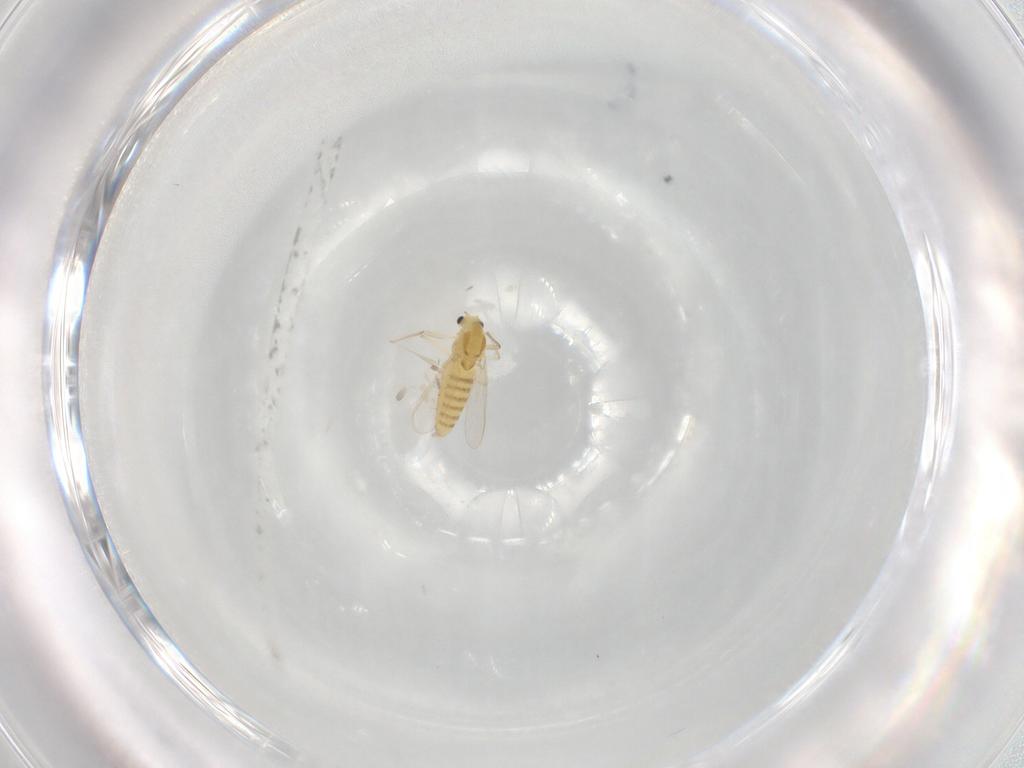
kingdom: Animalia
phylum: Arthropoda
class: Insecta
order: Diptera
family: Chironomidae
